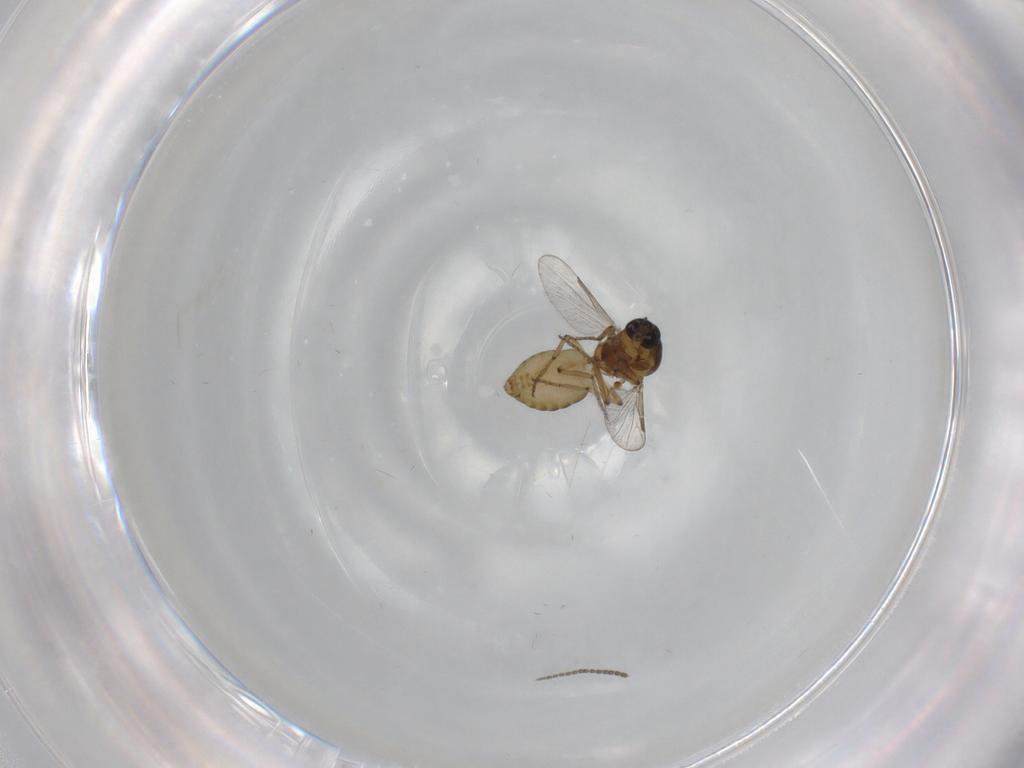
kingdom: Animalia
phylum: Arthropoda
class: Insecta
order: Diptera
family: Sciaridae
